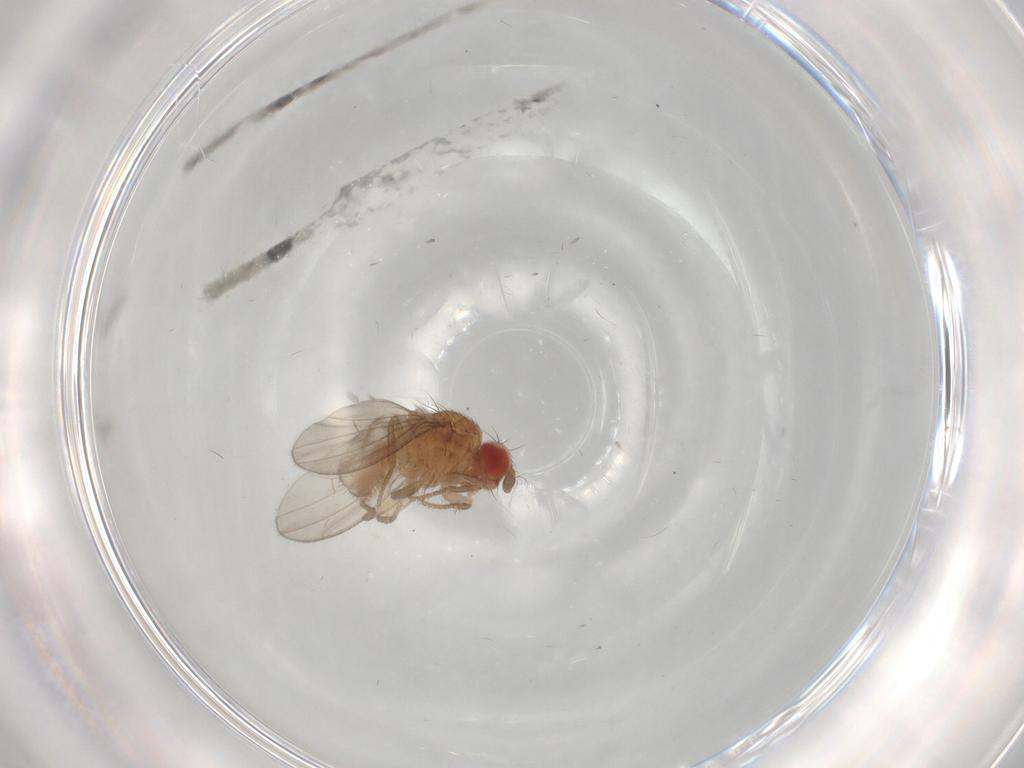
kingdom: Animalia
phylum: Arthropoda
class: Insecta
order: Diptera
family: Drosophilidae
